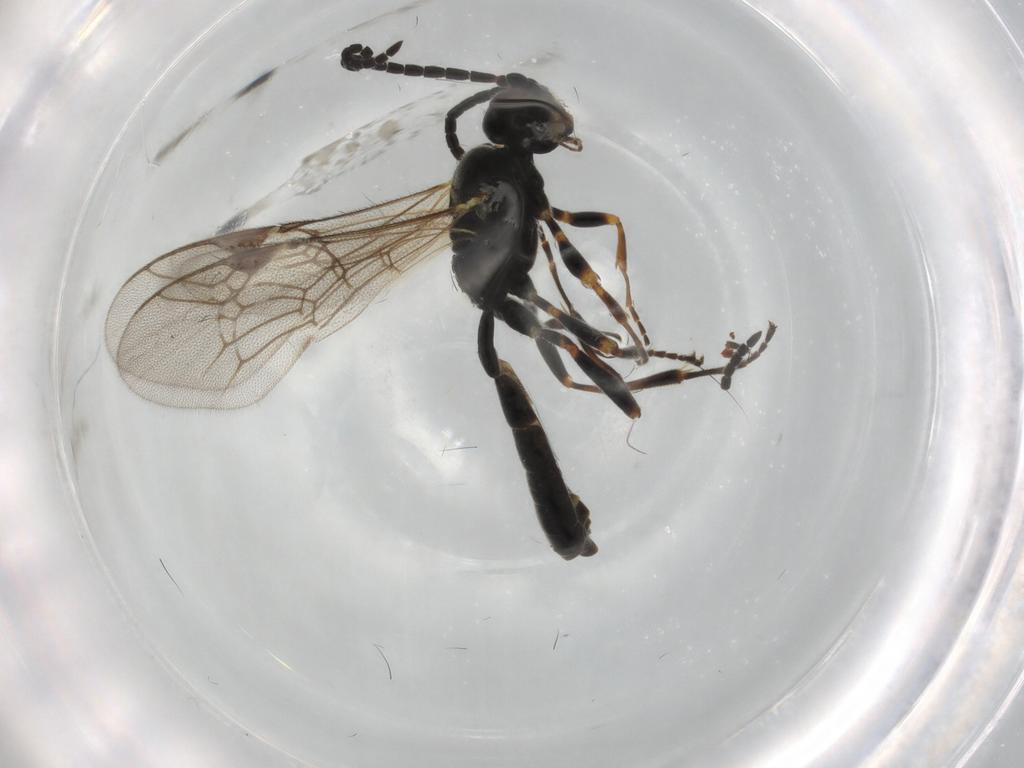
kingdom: Animalia
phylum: Arthropoda
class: Insecta
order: Hymenoptera
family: Ichneumonidae
